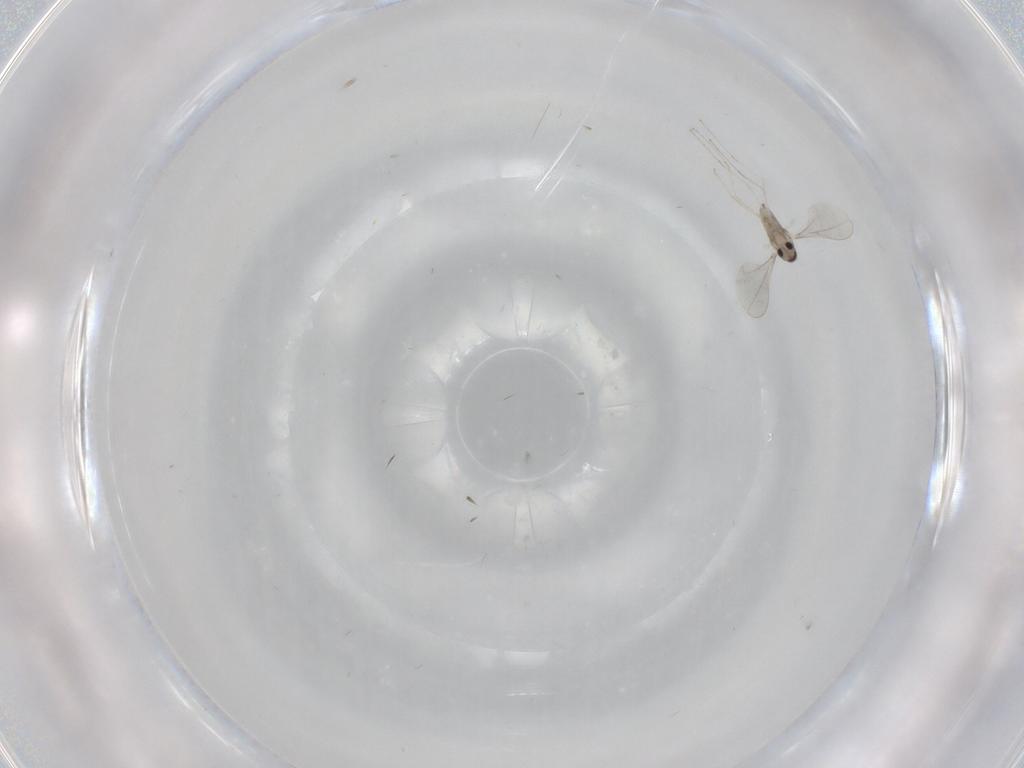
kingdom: Animalia
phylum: Arthropoda
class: Insecta
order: Diptera
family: Cecidomyiidae
